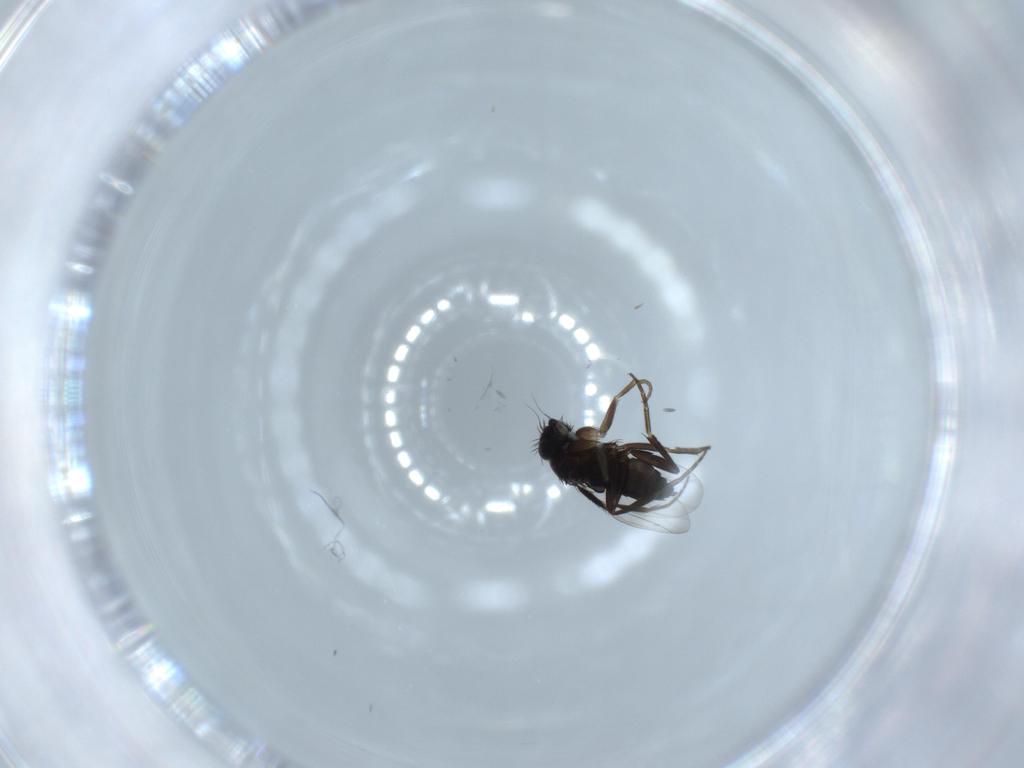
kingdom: Animalia
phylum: Arthropoda
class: Insecta
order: Diptera
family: Phoridae
